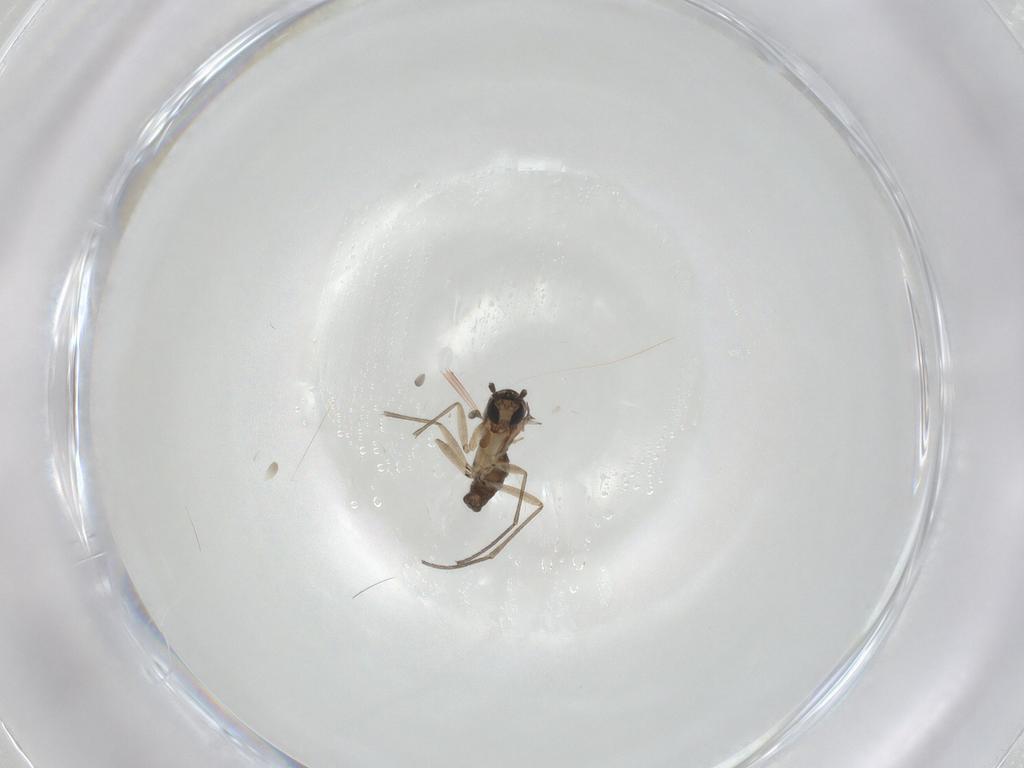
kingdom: Animalia
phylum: Arthropoda
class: Insecta
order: Diptera
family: Sciaridae
